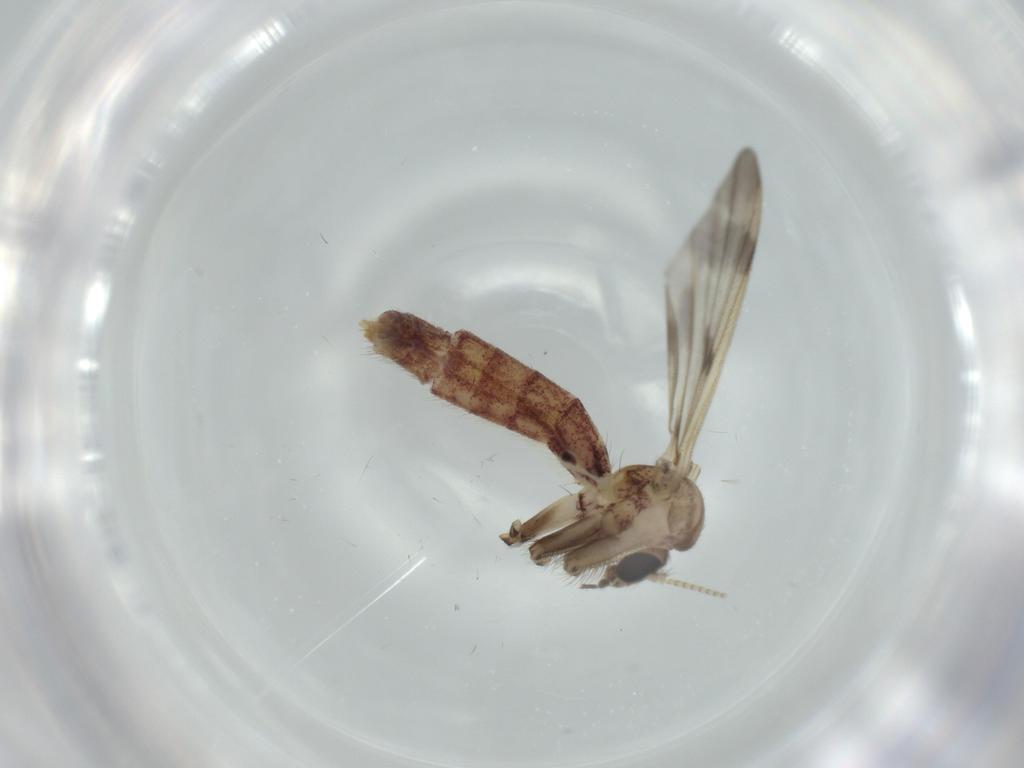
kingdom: Animalia
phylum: Arthropoda
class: Insecta
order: Diptera
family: Mycetophilidae
